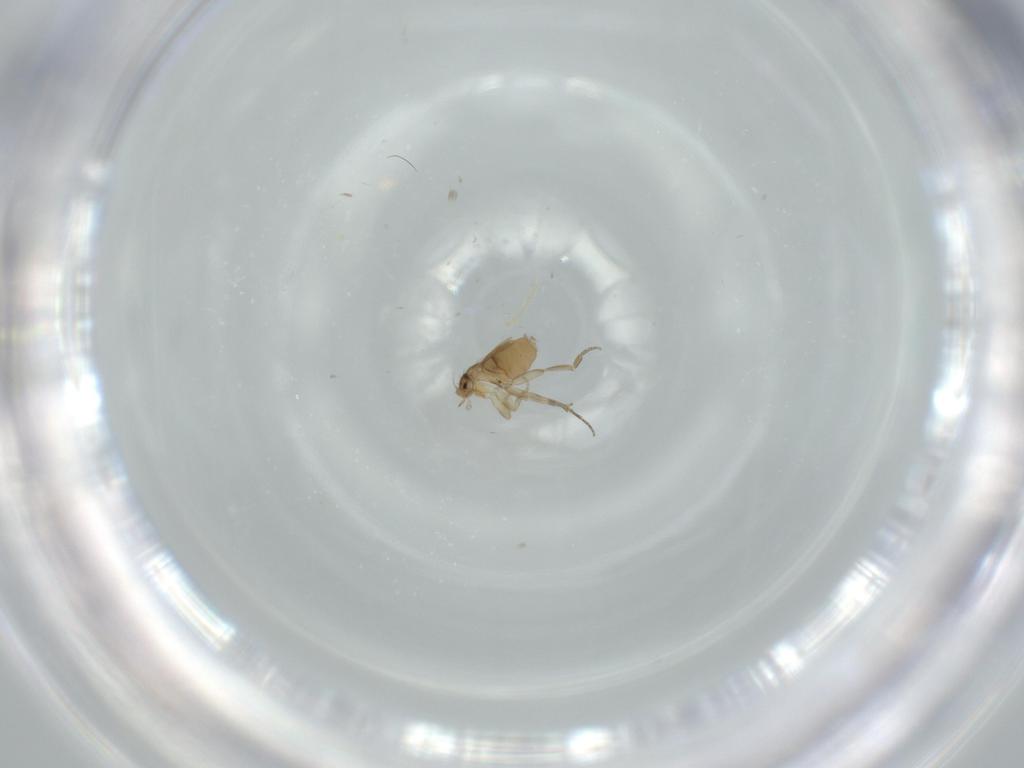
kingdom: Animalia
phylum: Arthropoda
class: Insecta
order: Diptera
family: Phoridae
